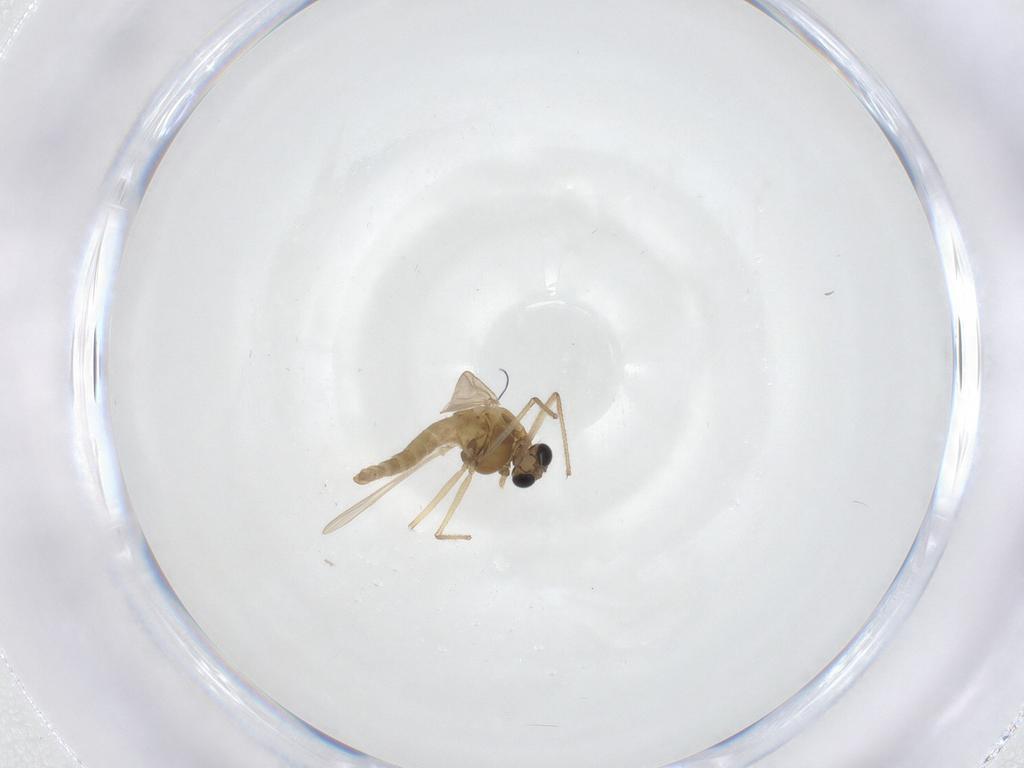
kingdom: Animalia
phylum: Arthropoda
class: Insecta
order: Diptera
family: Chironomidae
